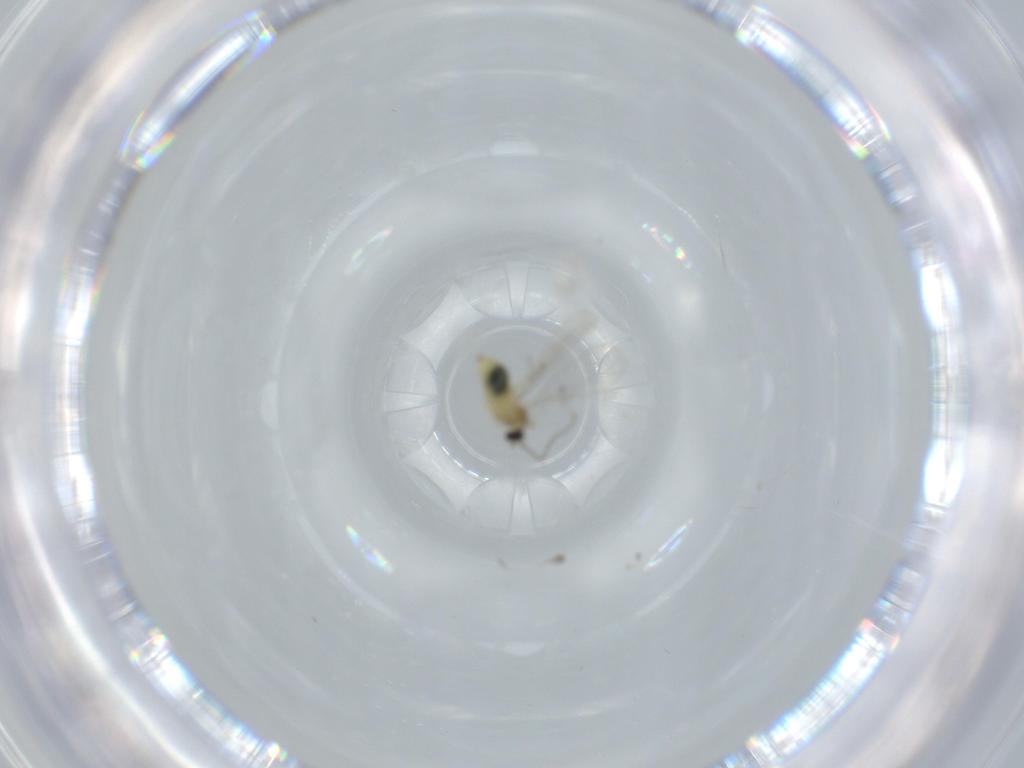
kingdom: Animalia
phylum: Arthropoda
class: Insecta
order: Diptera
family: Cecidomyiidae
